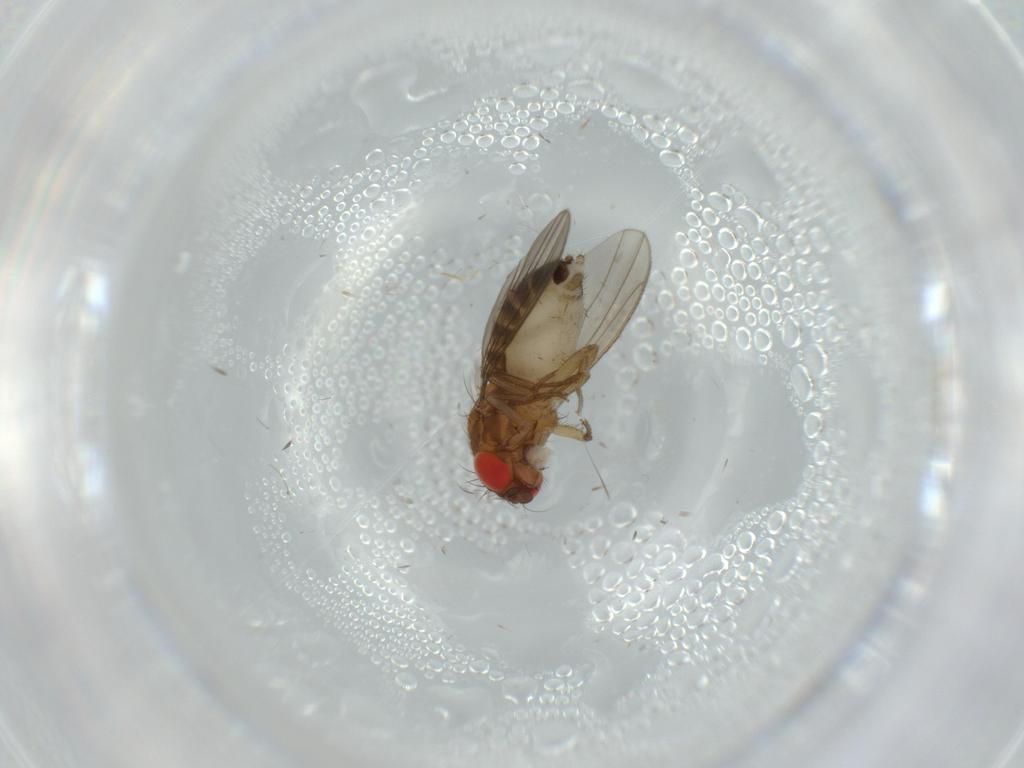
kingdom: Animalia
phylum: Arthropoda
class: Insecta
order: Diptera
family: Drosophilidae
